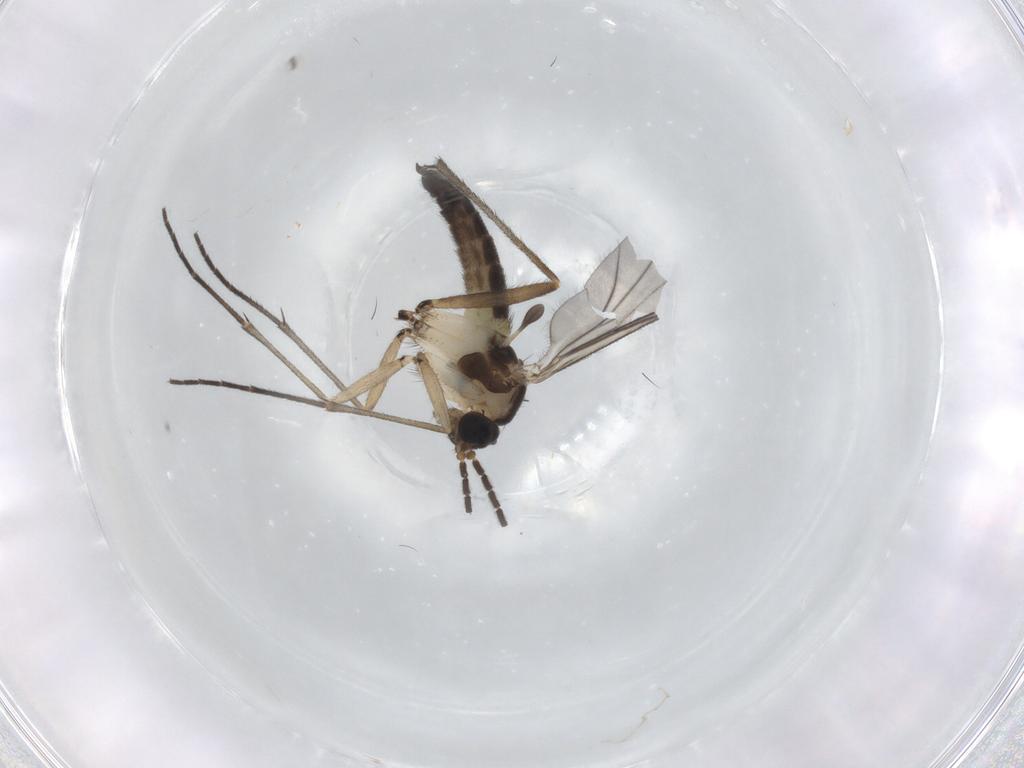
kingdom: Animalia
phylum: Arthropoda
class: Insecta
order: Diptera
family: Sciaridae
